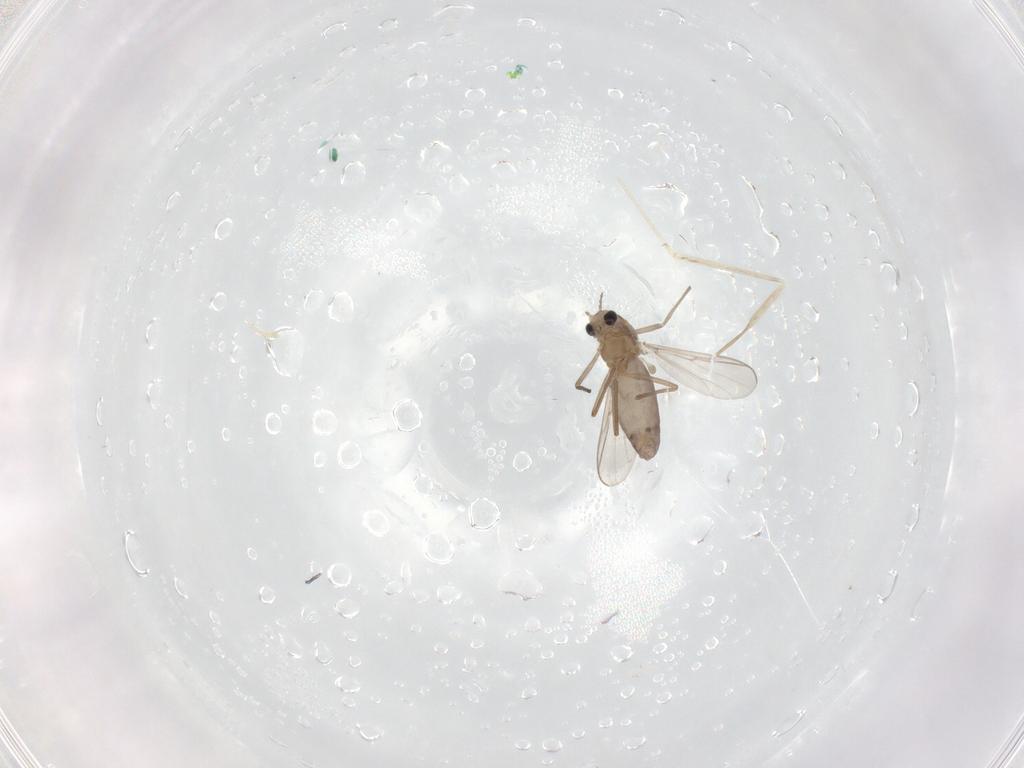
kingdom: Animalia
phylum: Arthropoda
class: Insecta
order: Diptera
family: Chironomidae
